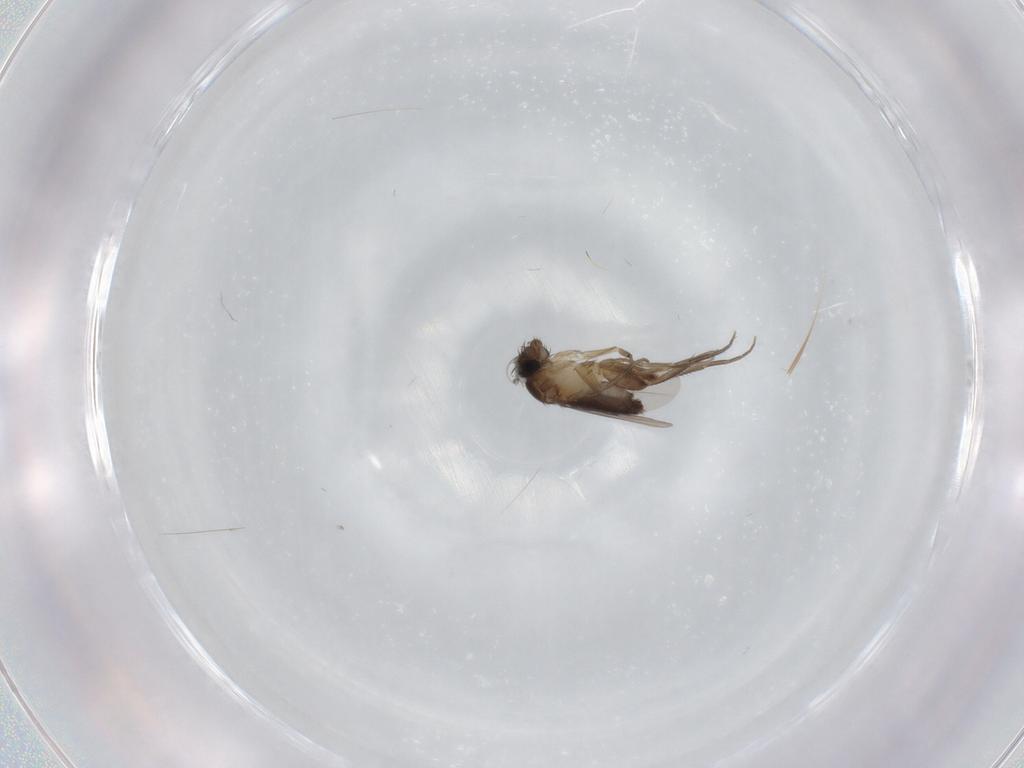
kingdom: Animalia
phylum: Arthropoda
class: Insecta
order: Diptera
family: Phoridae
